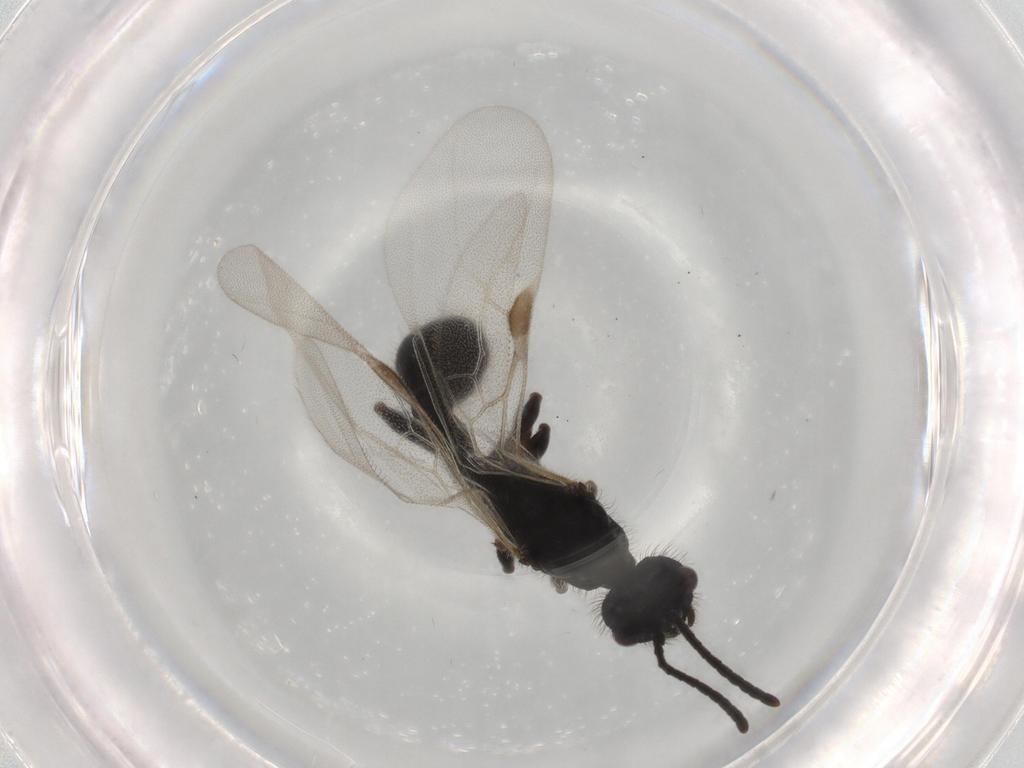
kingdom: Animalia
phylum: Arthropoda
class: Insecta
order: Hymenoptera
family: Formicidae
